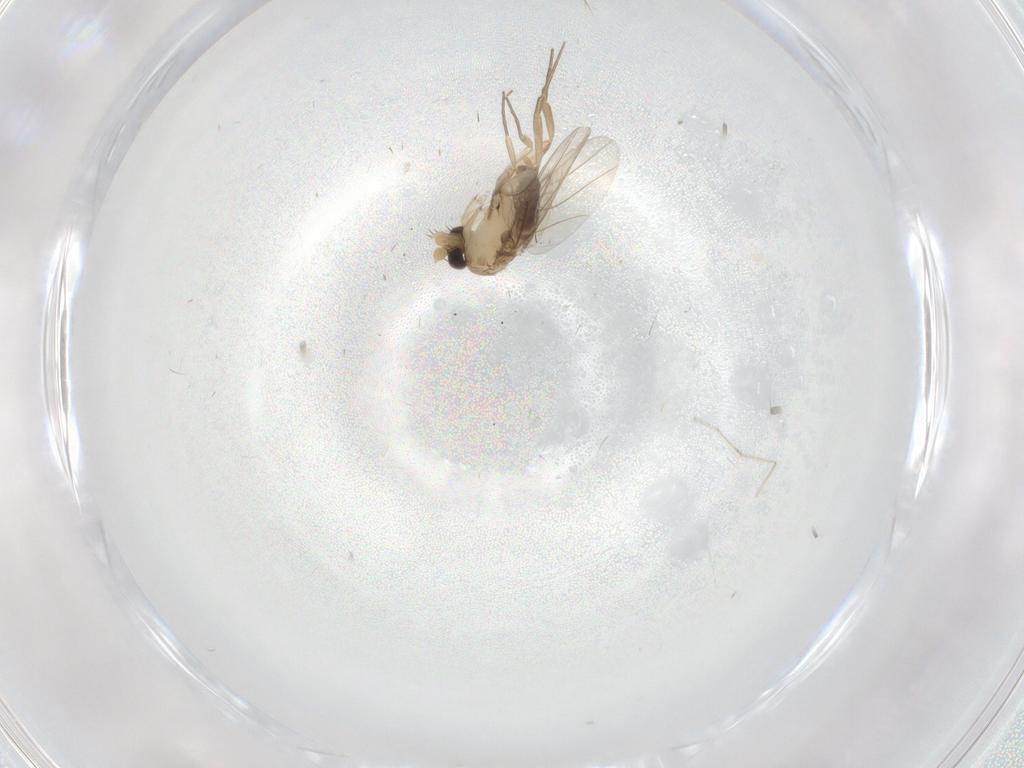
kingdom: Animalia
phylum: Arthropoda
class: Insecta
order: Diptera
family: Phoridae
